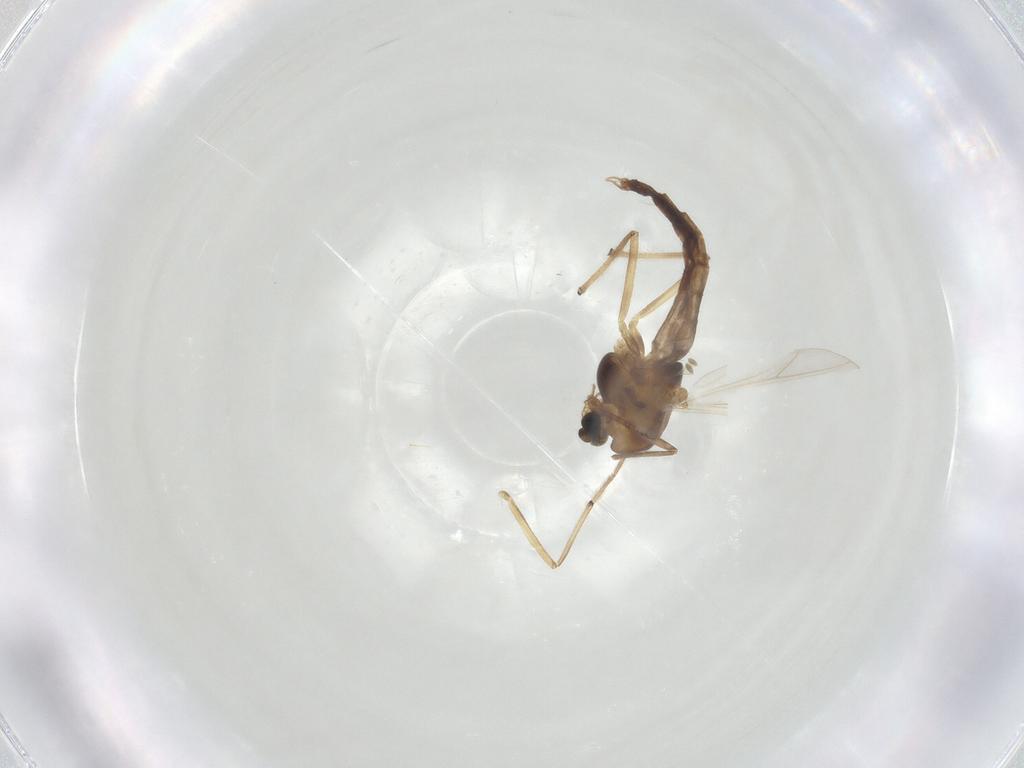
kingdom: Animalia
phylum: Arthropoda
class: Insecta
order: Diptera
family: Chironomidae
